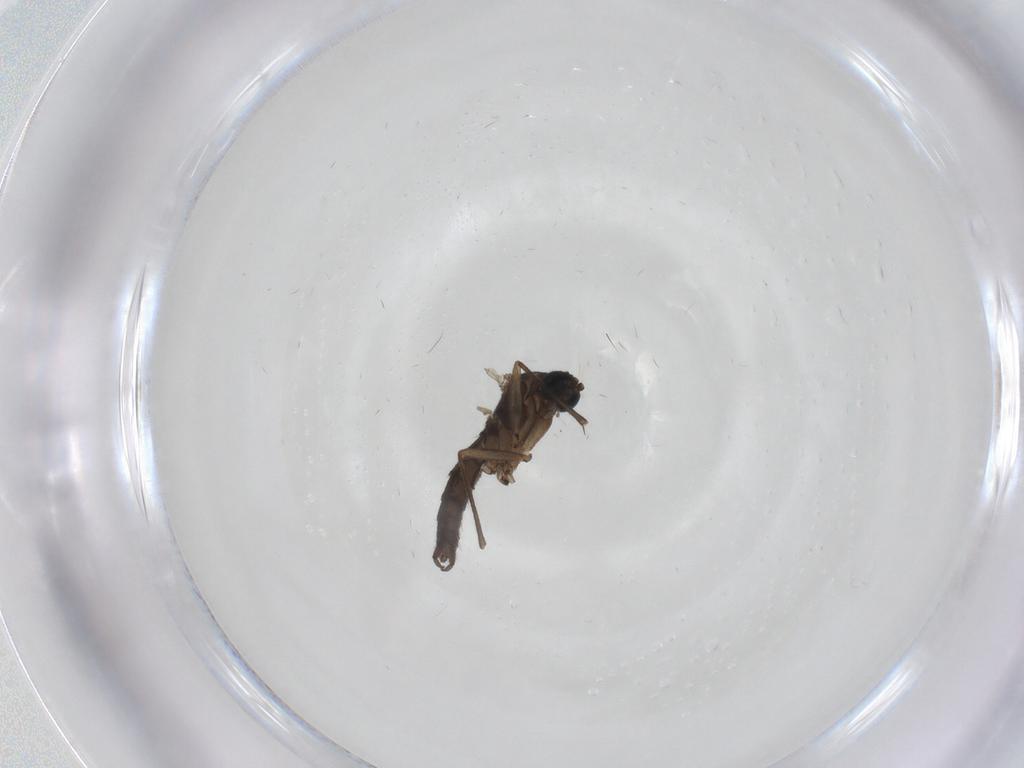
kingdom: Animalia
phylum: Arthropoda
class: Insecta
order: Diptera
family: Sciaridae
